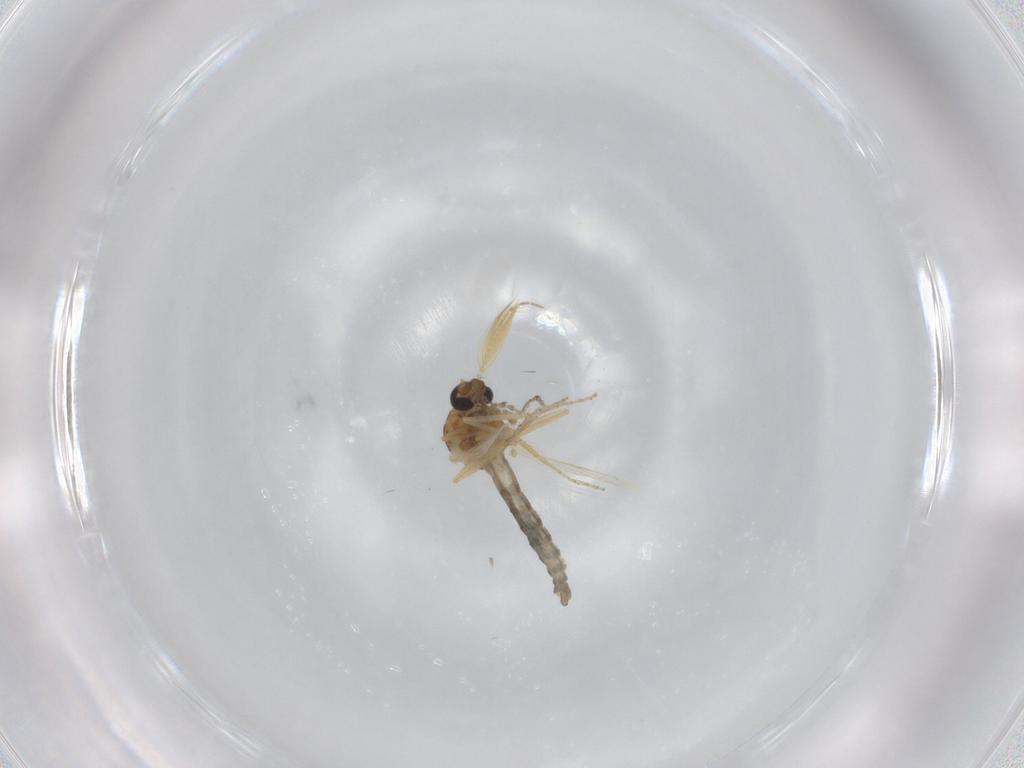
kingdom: Animalia
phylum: Arthropoda
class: Insecta
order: Diptera
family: Ceratopogonidae
